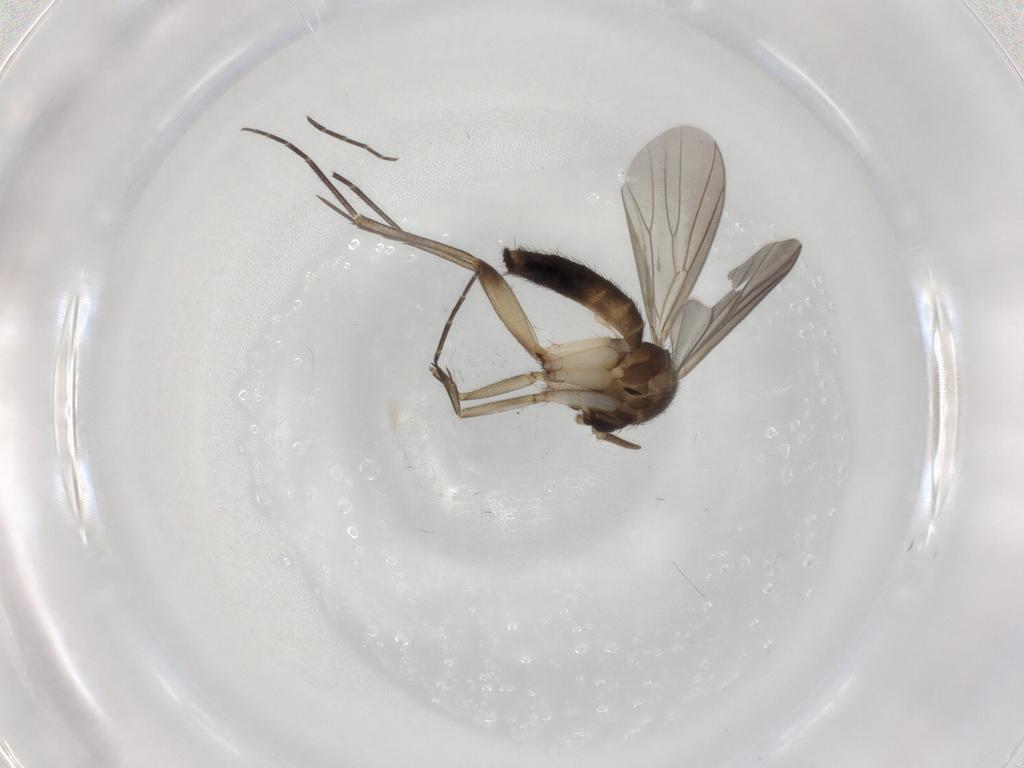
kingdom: Animalia
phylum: Arthropoda
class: Insecta
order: Diptera
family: Mycetophilidae
